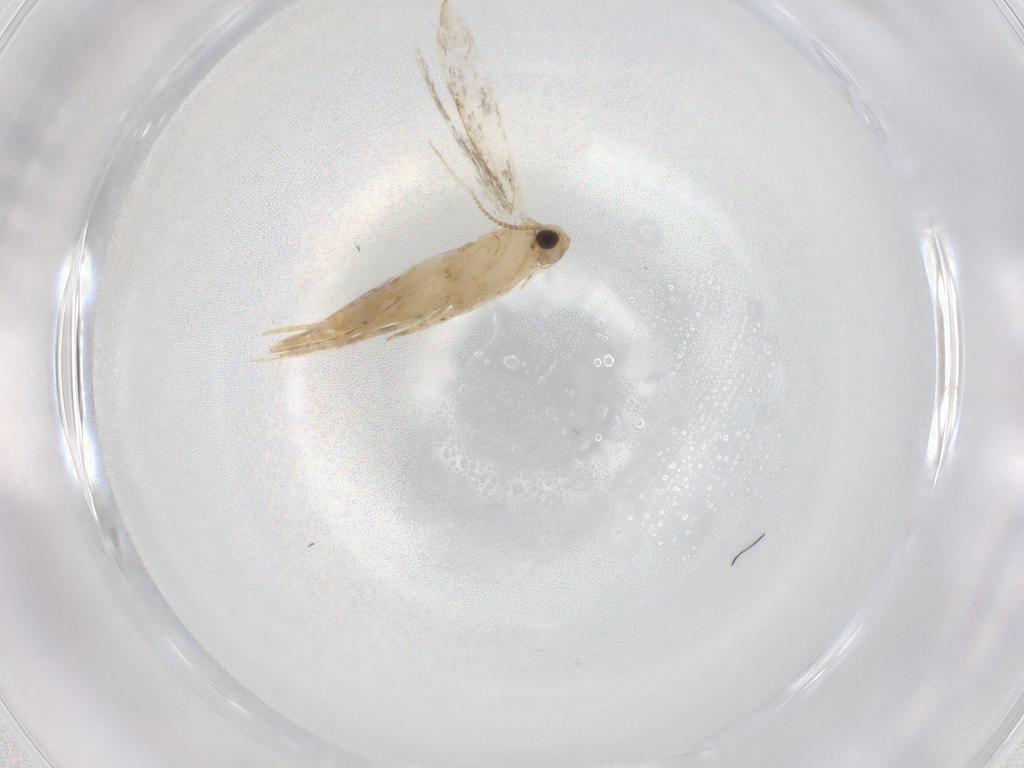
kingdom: Animalia
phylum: Arthropoda
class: Insecta
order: Lepidoptera
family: Tineidae
